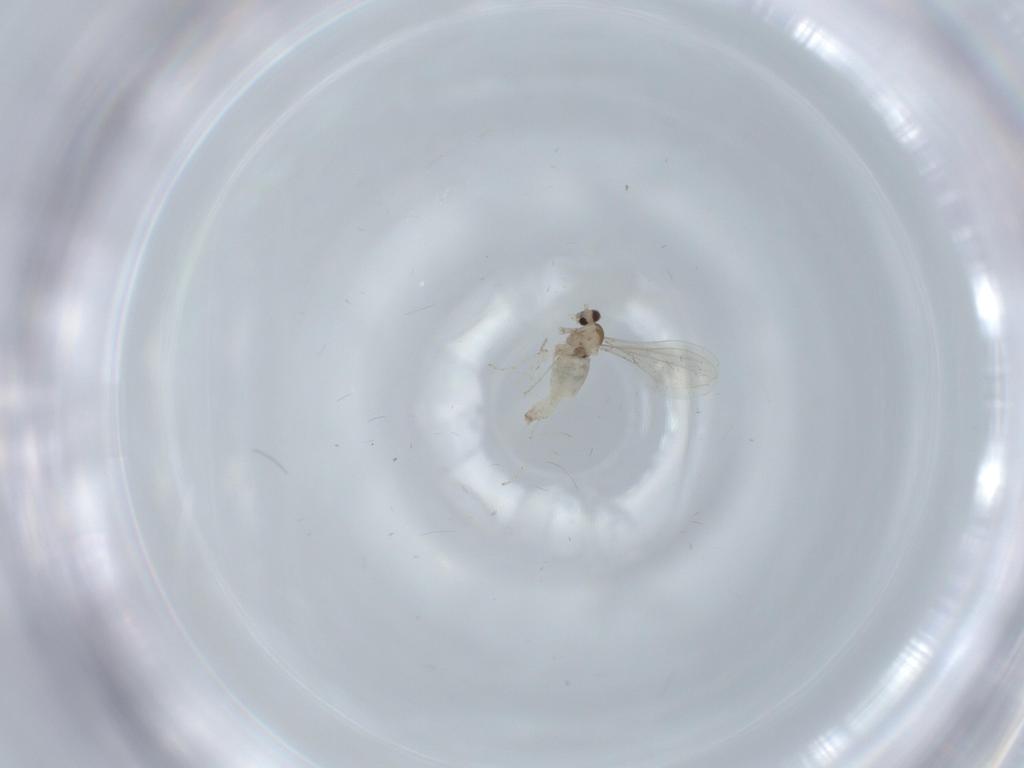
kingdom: Animalia
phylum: Arthropoda
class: Insecta
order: Diptera
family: Cecidomyiidae
